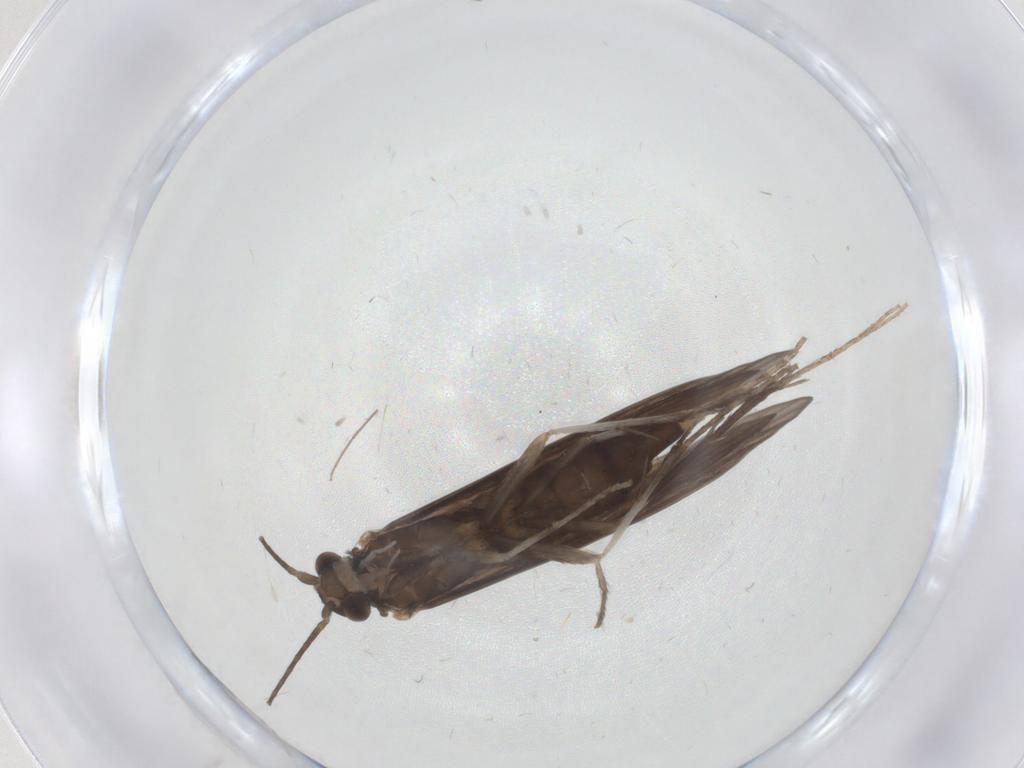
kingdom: Animalia
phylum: Arthropoda
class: Insecta
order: Trichoptera
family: Xiphocentronidae
